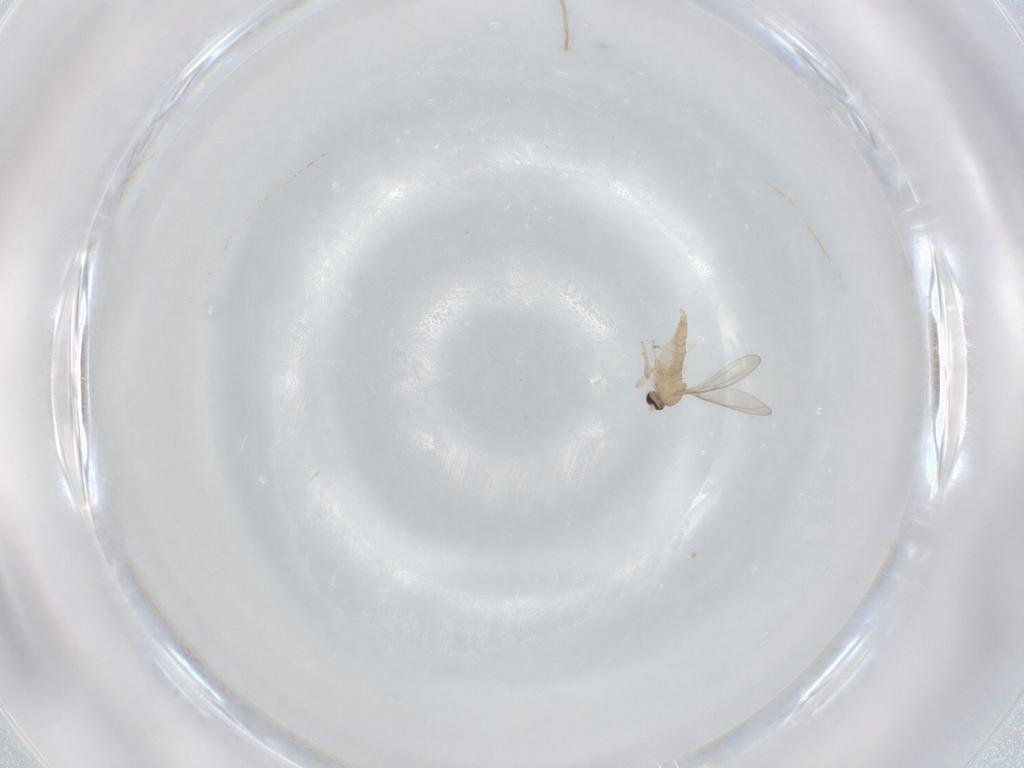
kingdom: Animalia
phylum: Arthropoda
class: Insecta
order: Diptera
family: Cecidomyiidae
